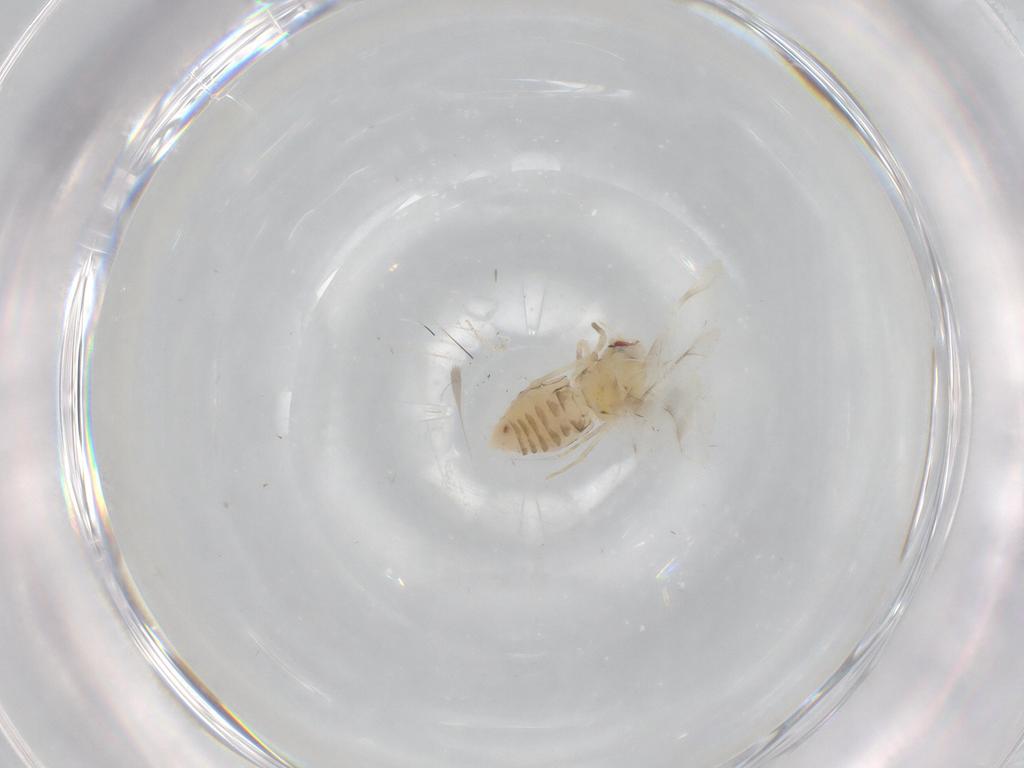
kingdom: Animalia
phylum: Arthropoda
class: Insecta
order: Hemiptera
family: Aleyrodidae
